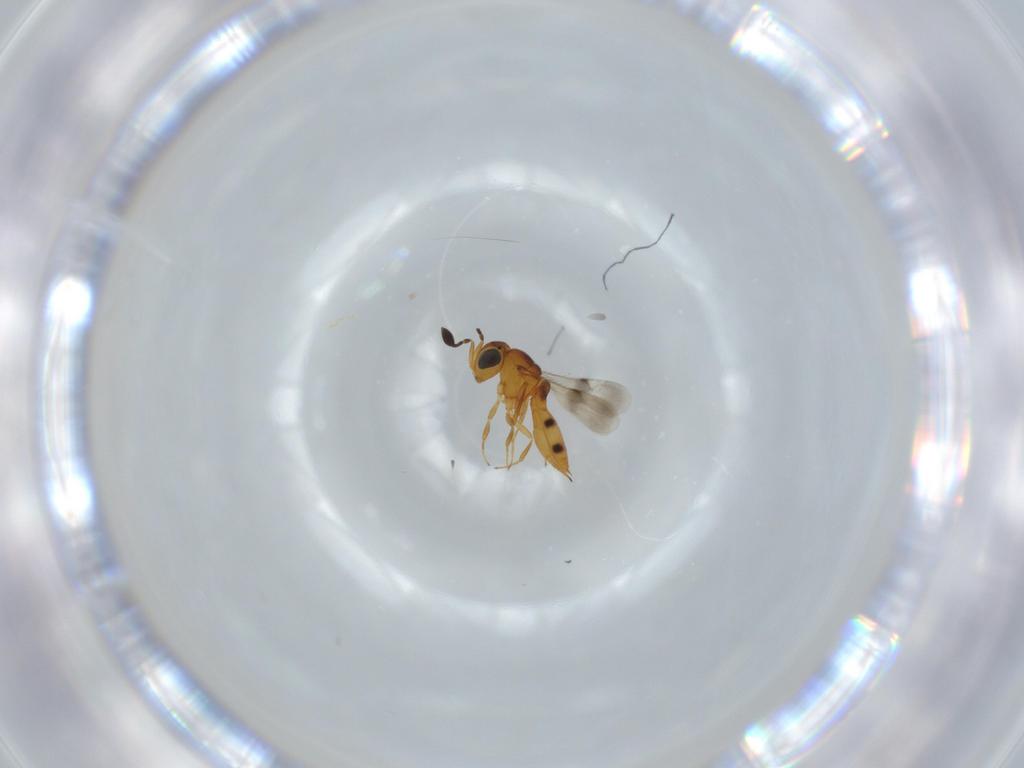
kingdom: Animalia
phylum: Arthropoda
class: Insecta
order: Hymenoptera
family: Scelionidae
